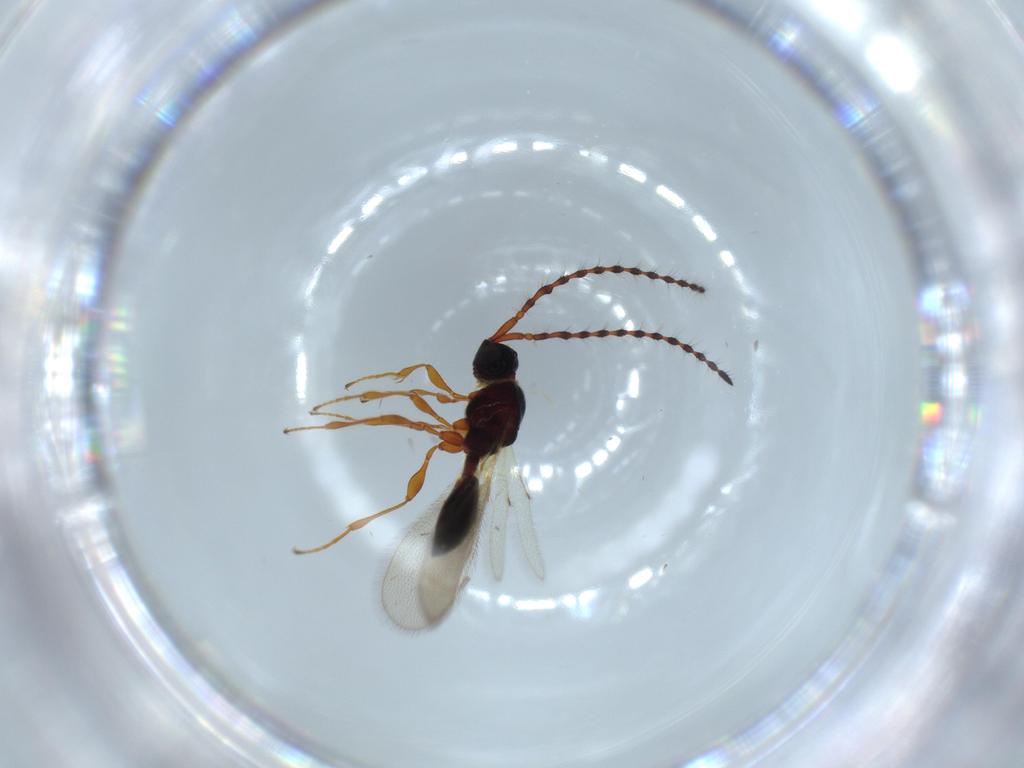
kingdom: Animalia
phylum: Arthropoda
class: Insecta
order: Hymenoptera
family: Diapriidae
